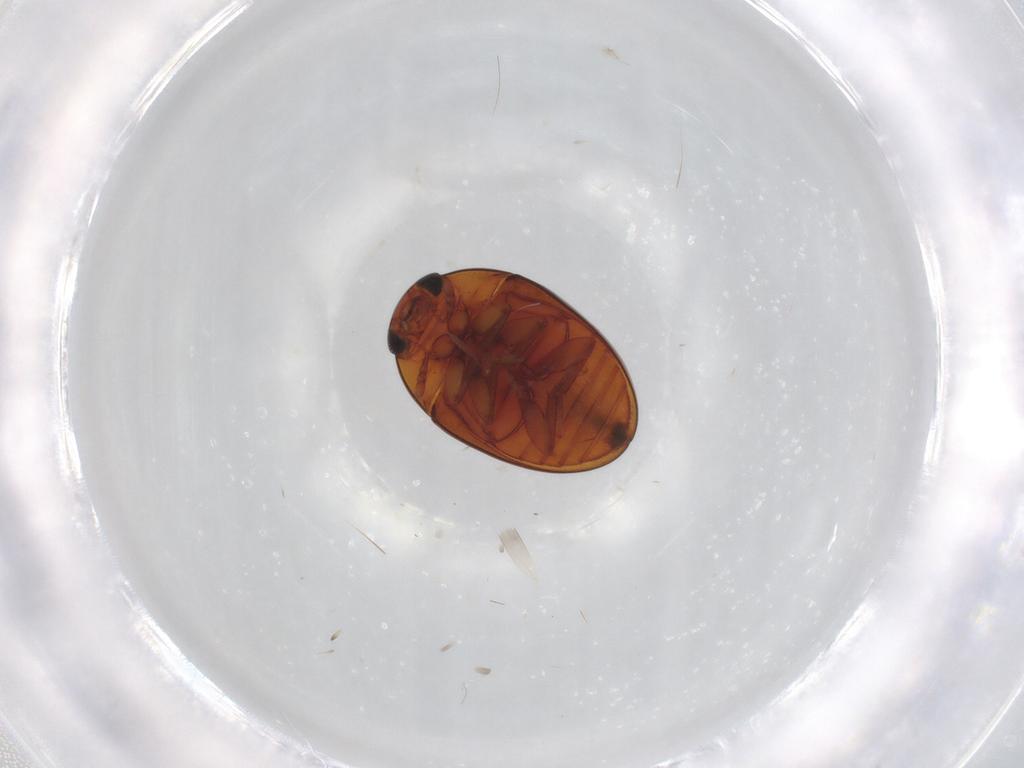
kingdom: Animalia
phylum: Arthropoda
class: Insecta
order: Coleoptera
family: Phalacridae
